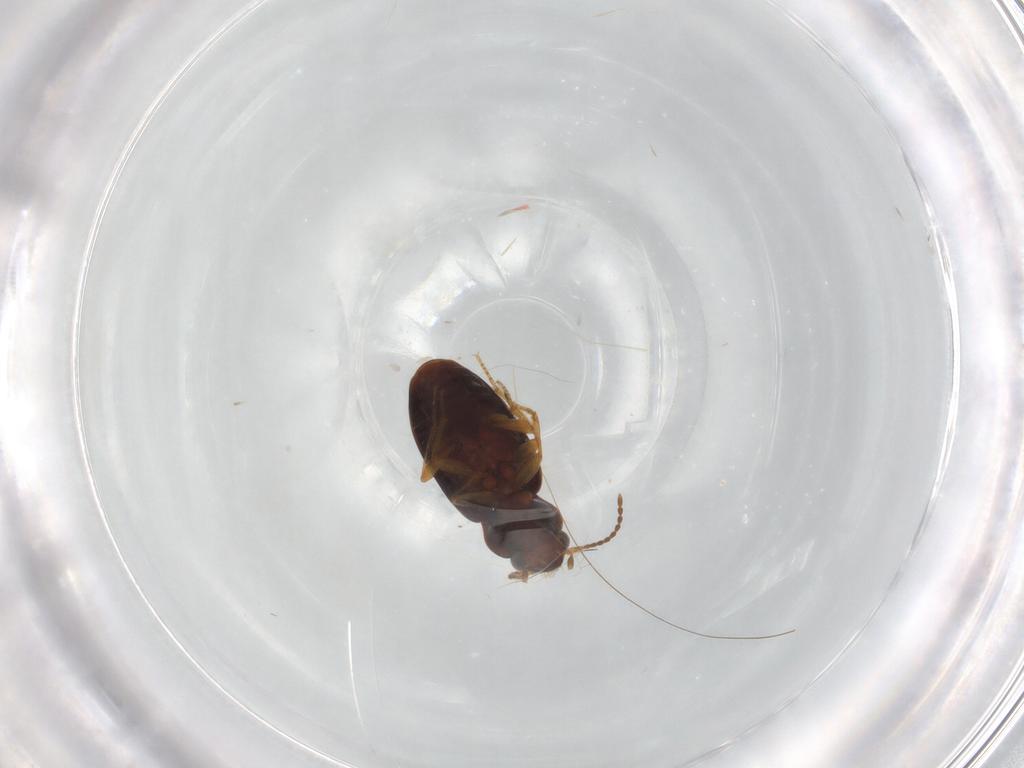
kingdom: Animalia
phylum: Arthropoda
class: Insecta
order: Coleoptera
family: Carabidae
